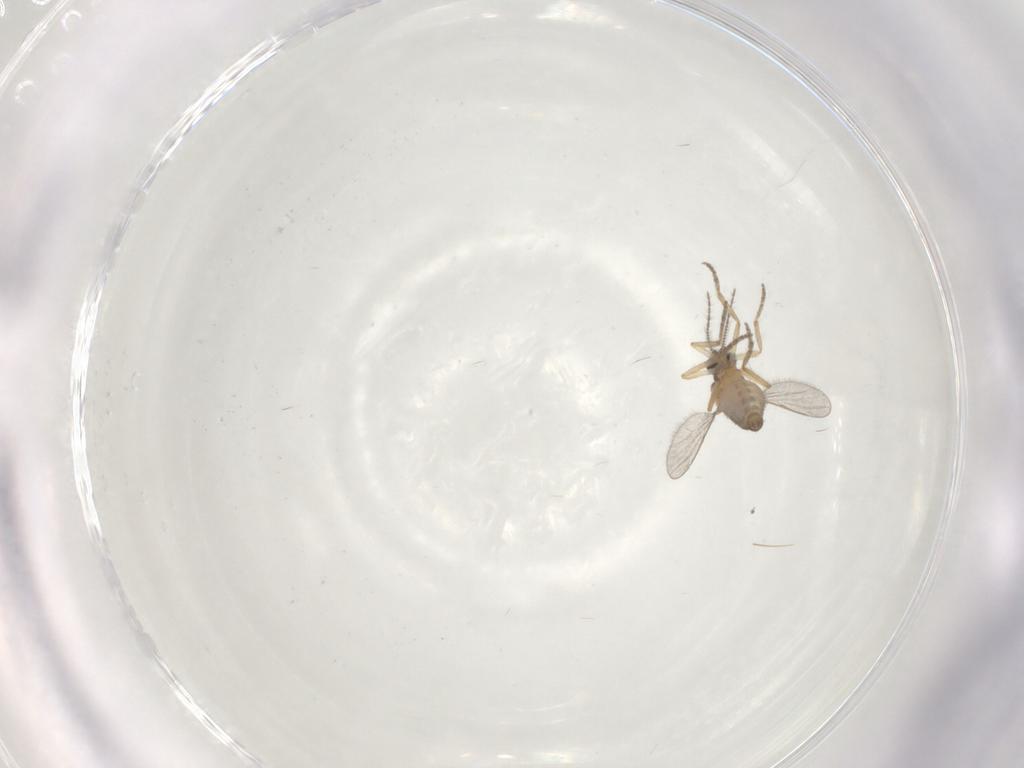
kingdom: Animalia
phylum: Arthropoda
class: Insecta
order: Diptera
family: Ceratopogonidae
